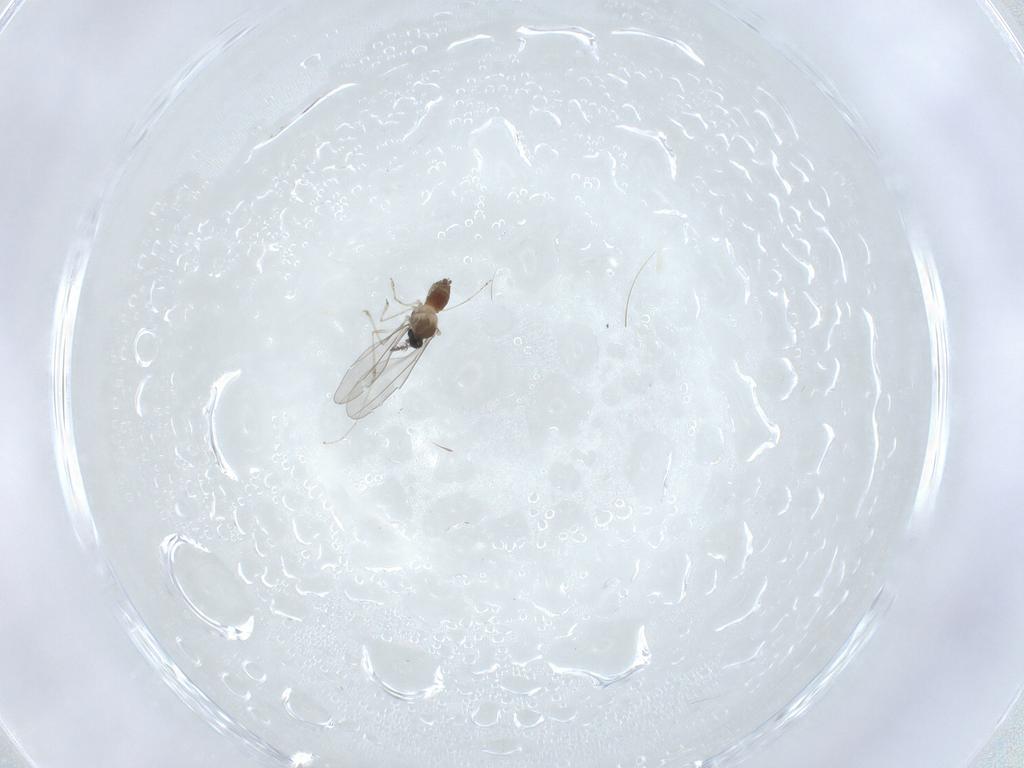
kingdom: Animalia
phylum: Arthropoda
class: Insecta
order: Diptera
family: Cecidomyiidae
